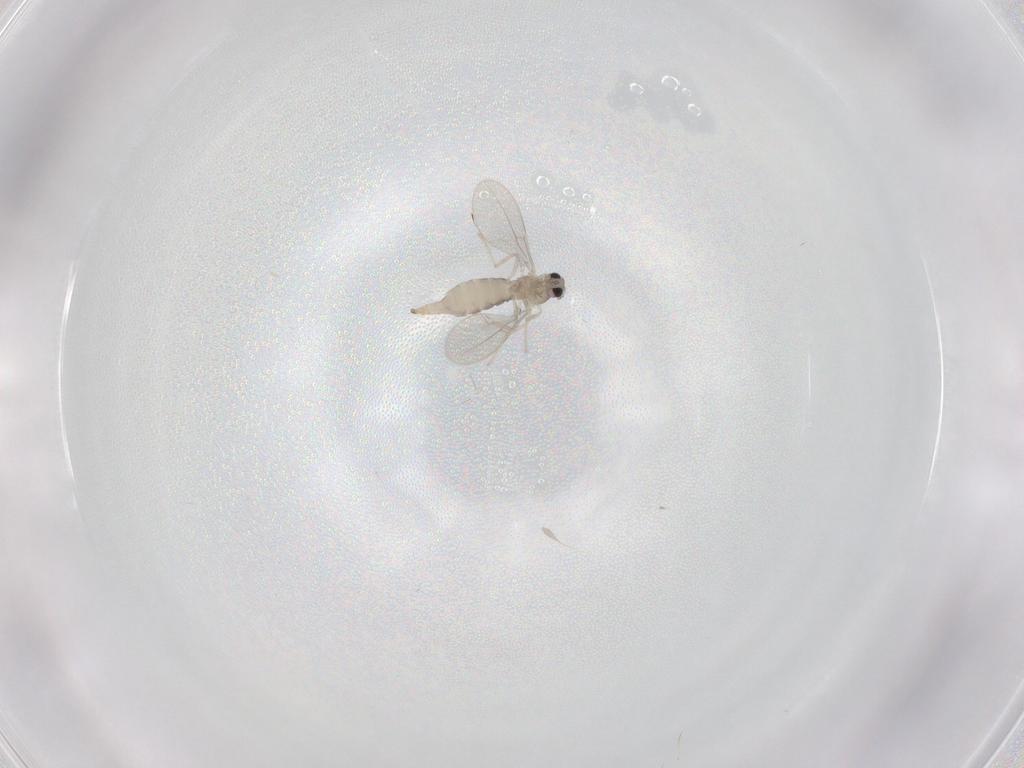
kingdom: Animalia
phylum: Arthropoda
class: Insecta
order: Diptera
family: Cecidomyiidae
